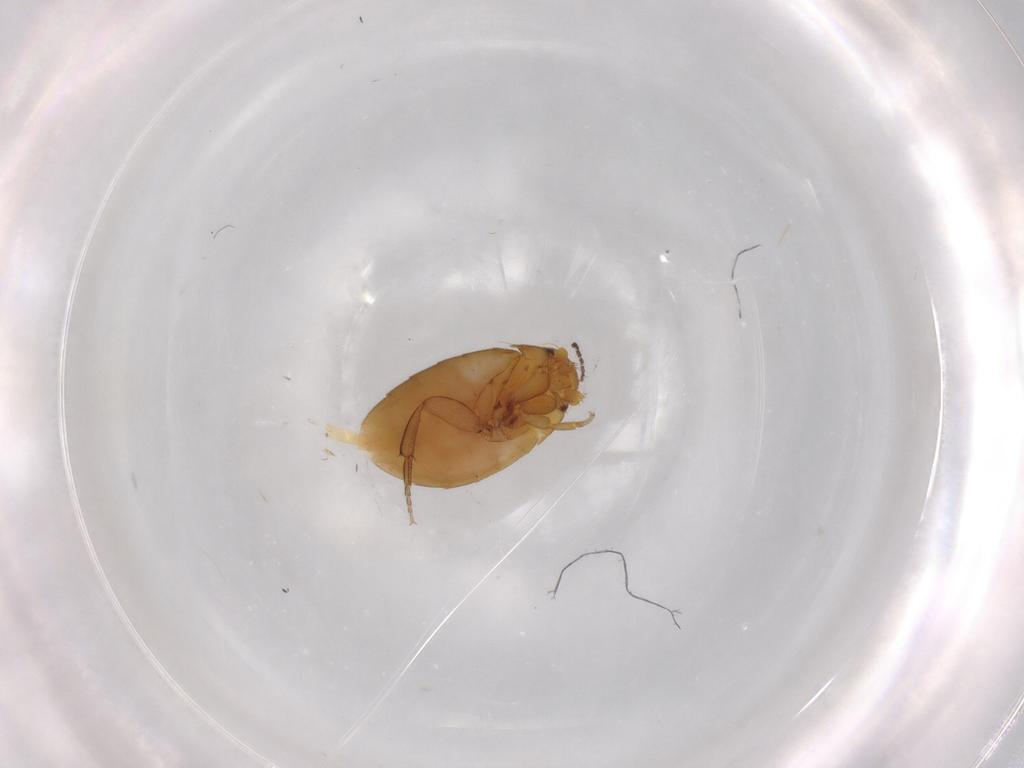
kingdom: Animalia
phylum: Arthropoda
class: Insecta
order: Diptera
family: Phoridae
